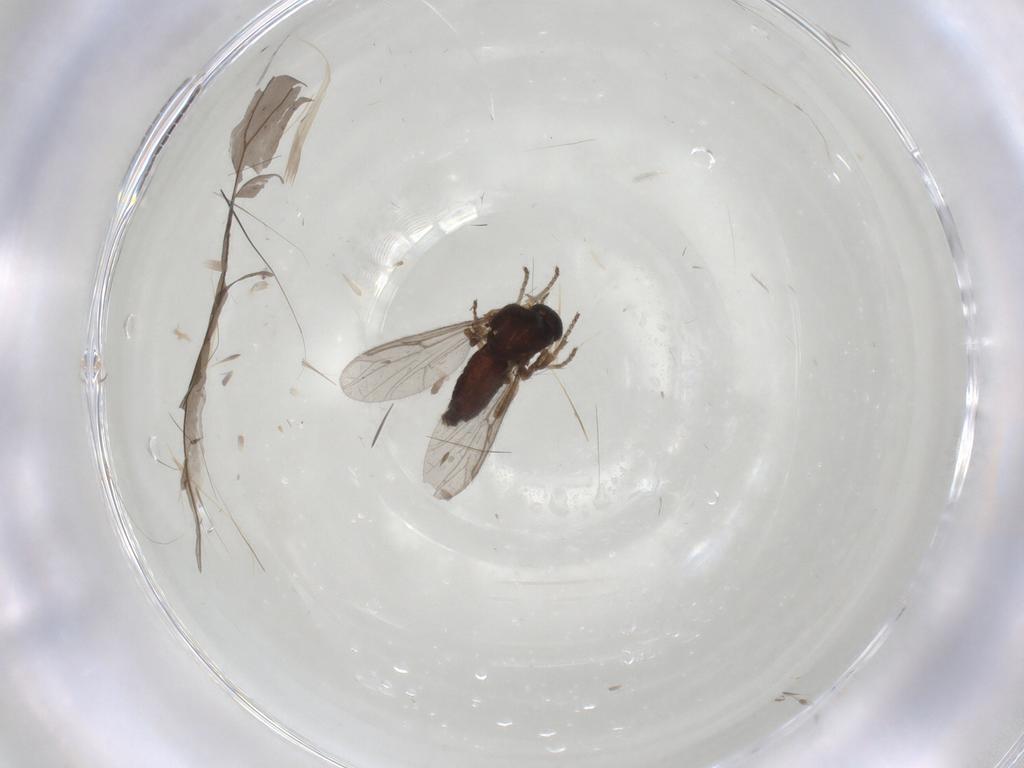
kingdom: Animalia
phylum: Arthropoda
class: Insecta
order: Diptera
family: Ceratopogonidae
